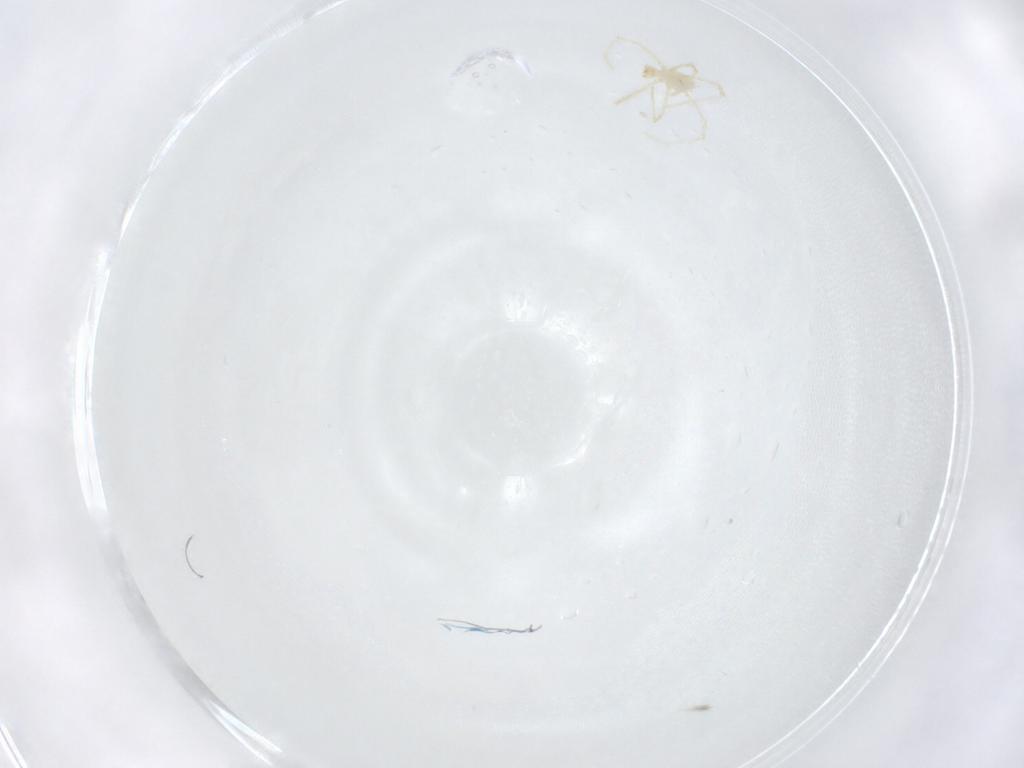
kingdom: Animalia
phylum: Arthropoda
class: Arachnida
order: Trombidiformes
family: Erythraeidae
